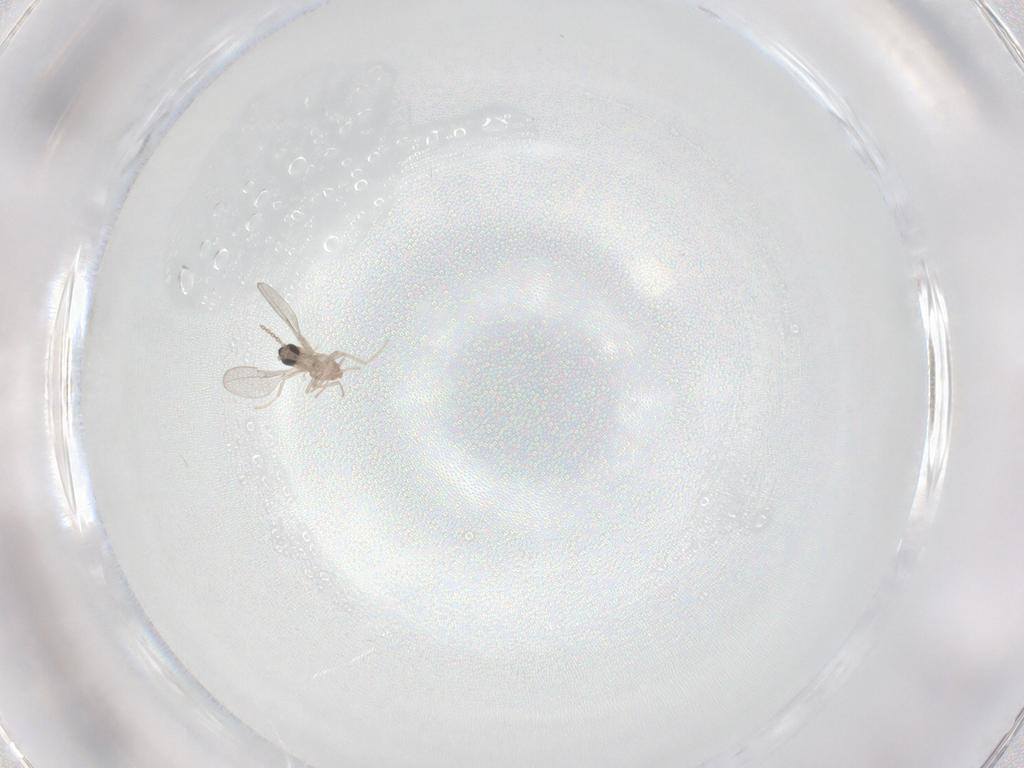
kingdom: Animalia
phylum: Arthropoda
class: Insecta
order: Diptera
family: Cecidomyiidae
